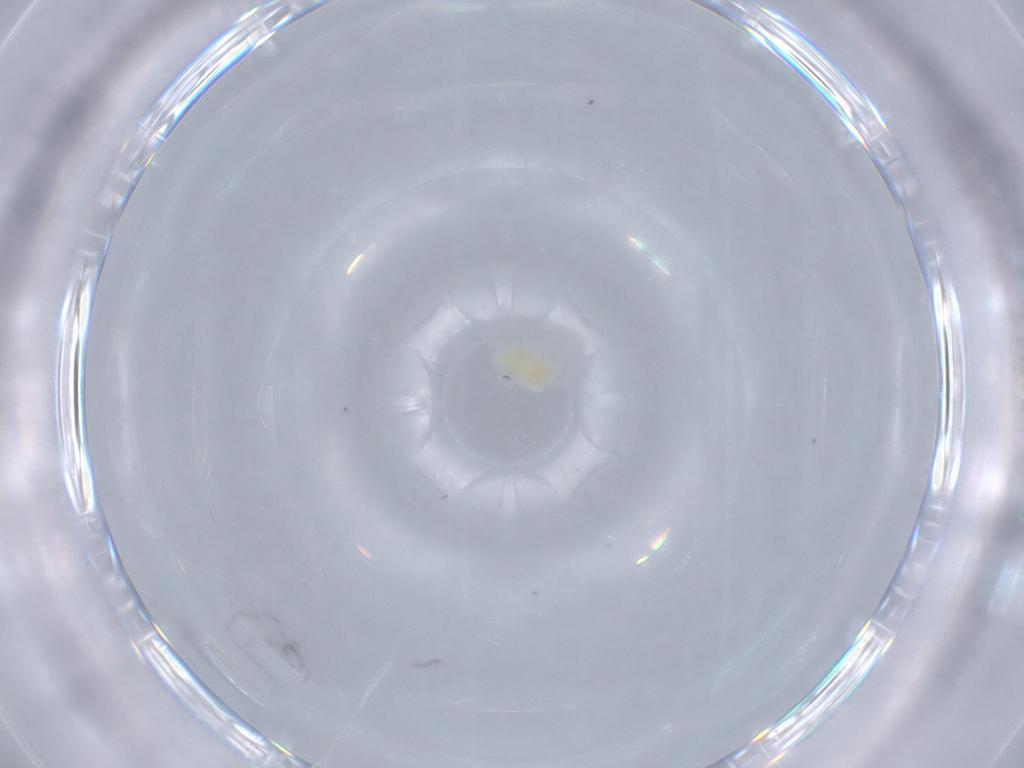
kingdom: Animalia
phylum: Arthropoda
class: Arachnida
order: Trombidiformes
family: Eupodidae
